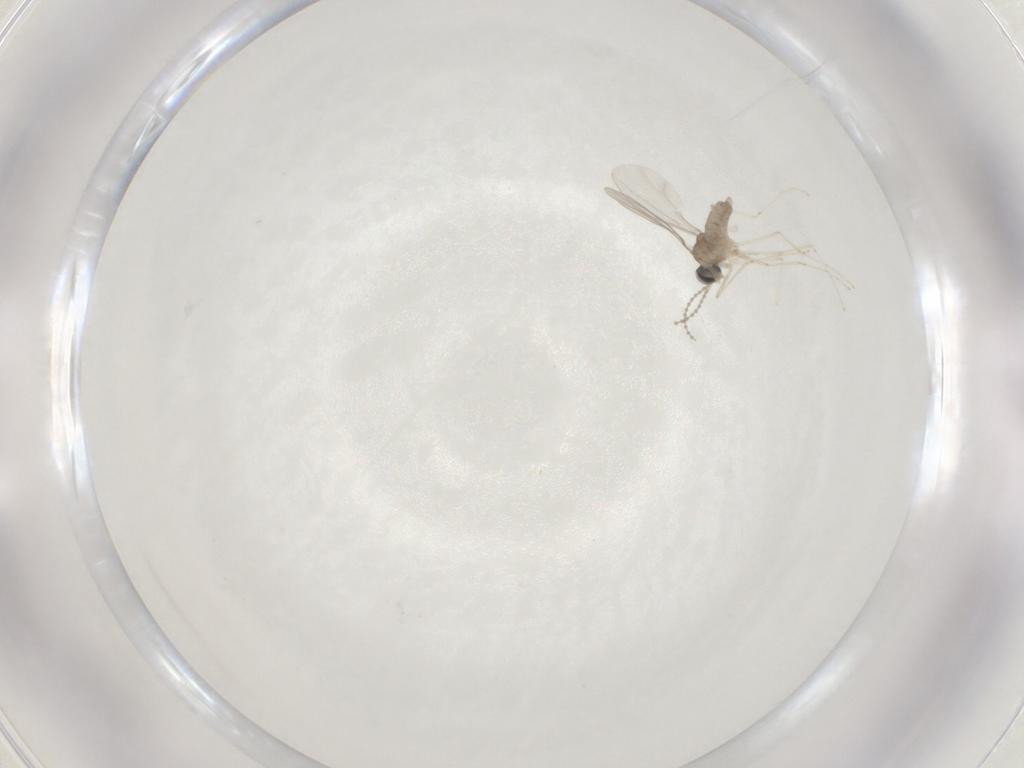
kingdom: Animalia
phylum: Arthropoda
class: Insecta
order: Diptera
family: Cecidomyiidae
